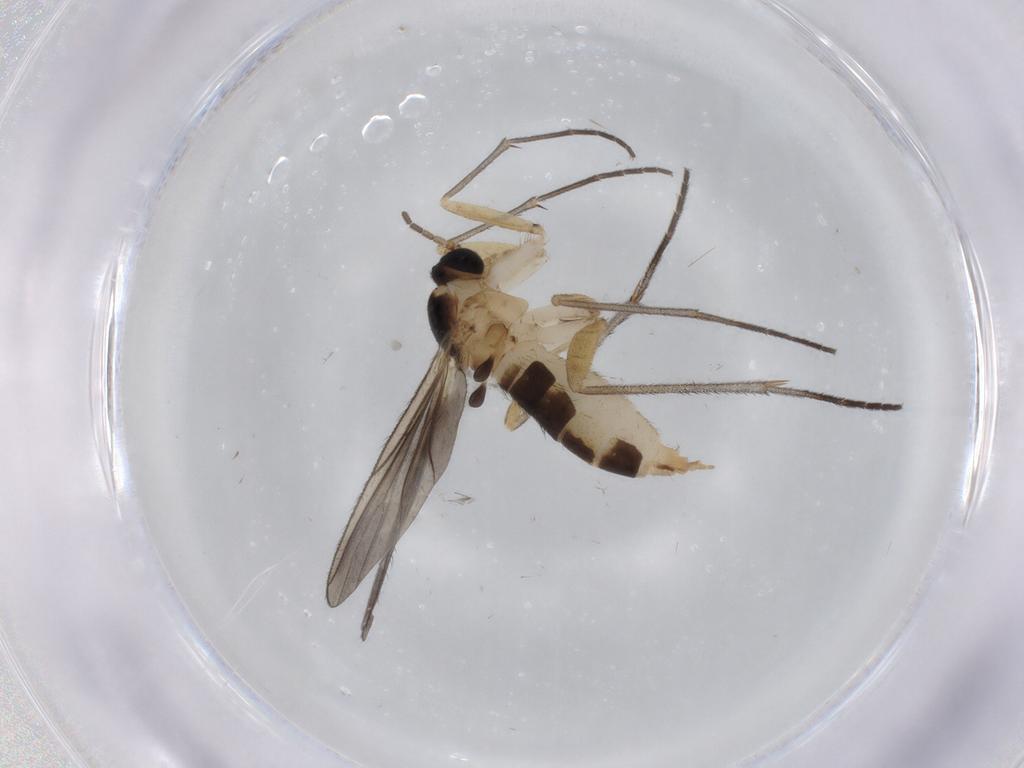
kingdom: Animalia
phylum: Arthropoda
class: Insecta
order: Diptera
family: Sciaridae
